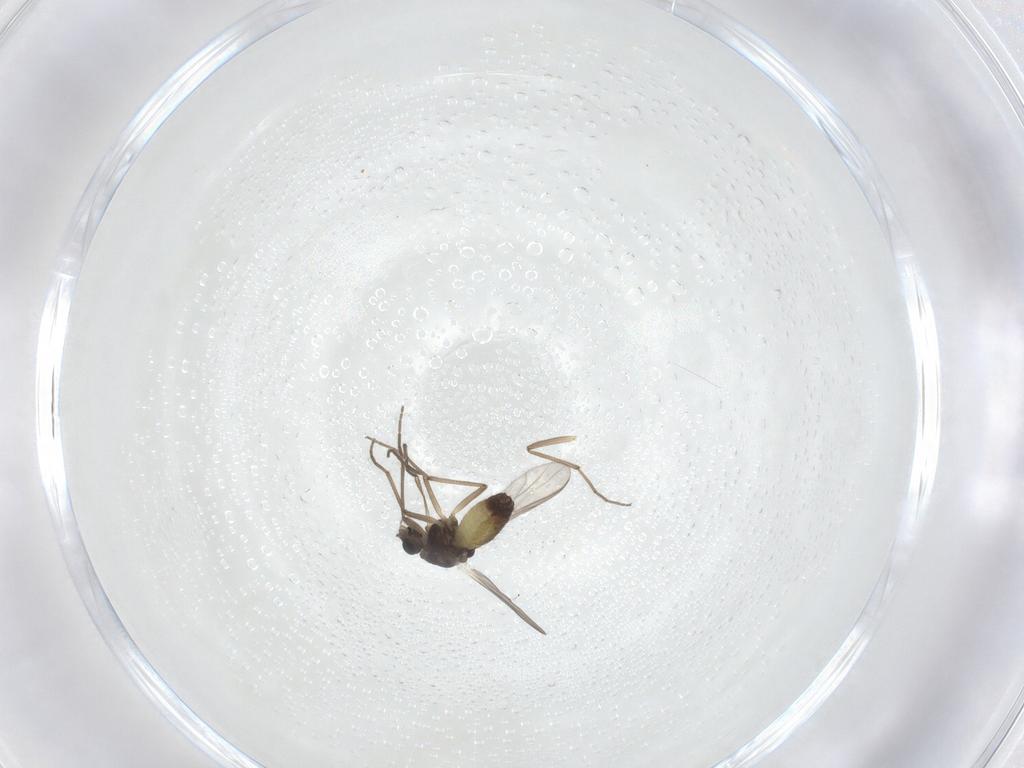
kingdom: Animalia
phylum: Arthropoda
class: Insecta
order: Diptera
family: Chironomidae
